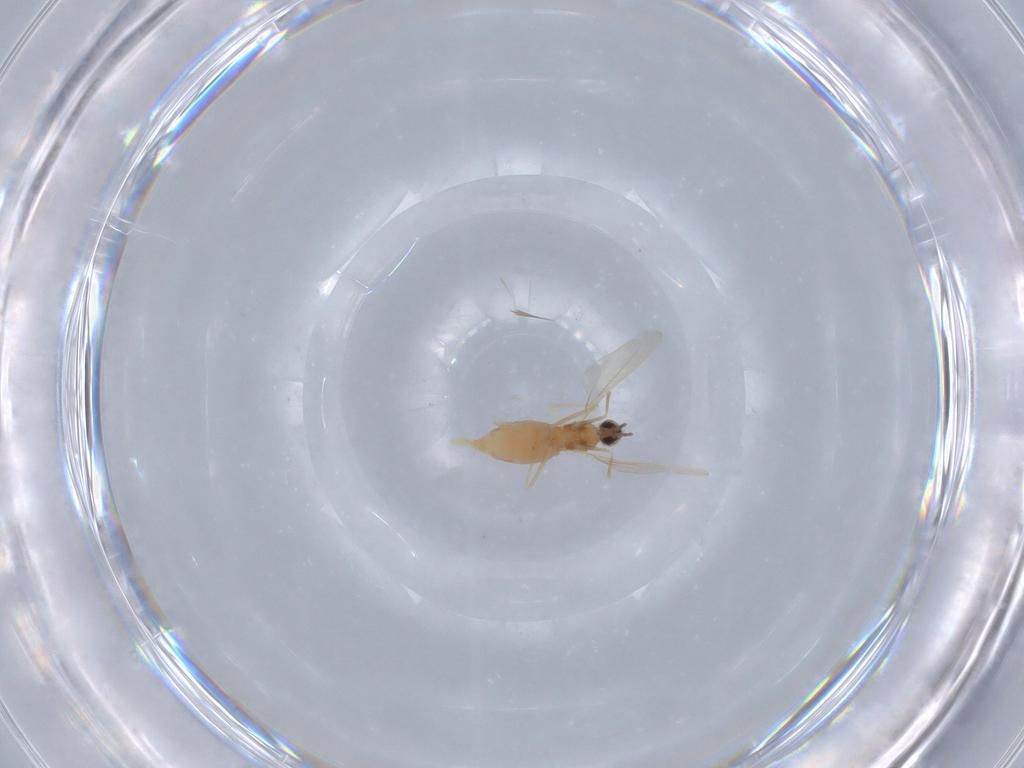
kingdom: Animalia
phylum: Arthropoda
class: Insecta
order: Diptera
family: Cecidomyiidae
